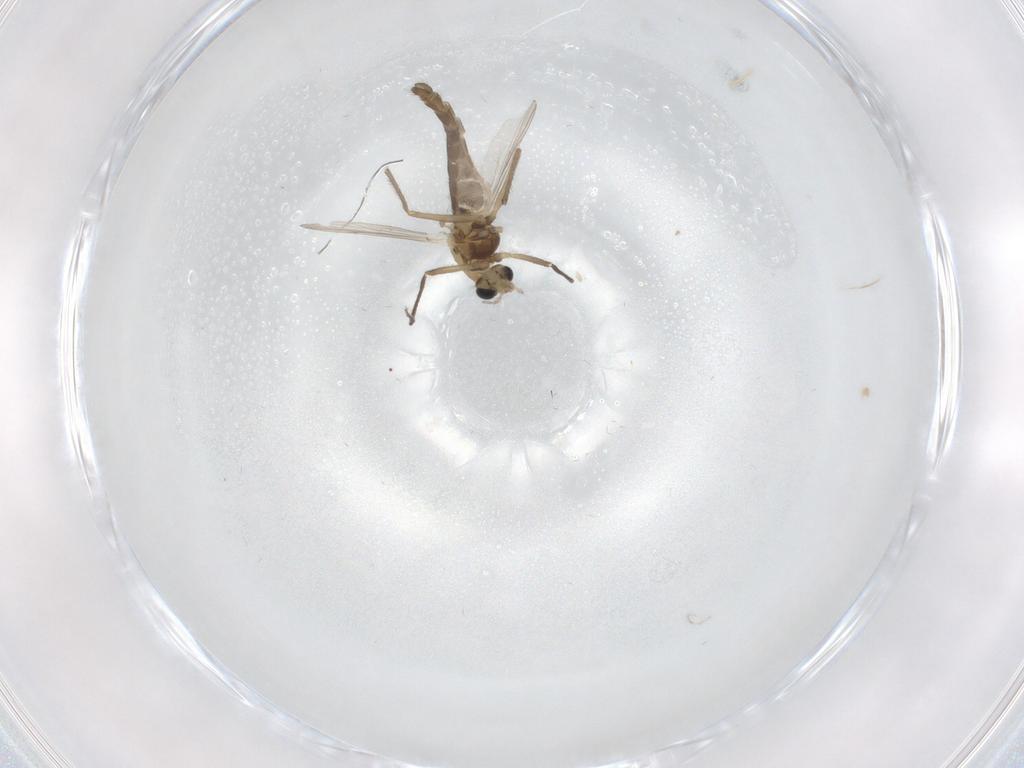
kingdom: Animalia
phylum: Arthropoda
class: Insecta
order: Diptera
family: Chironomidae
